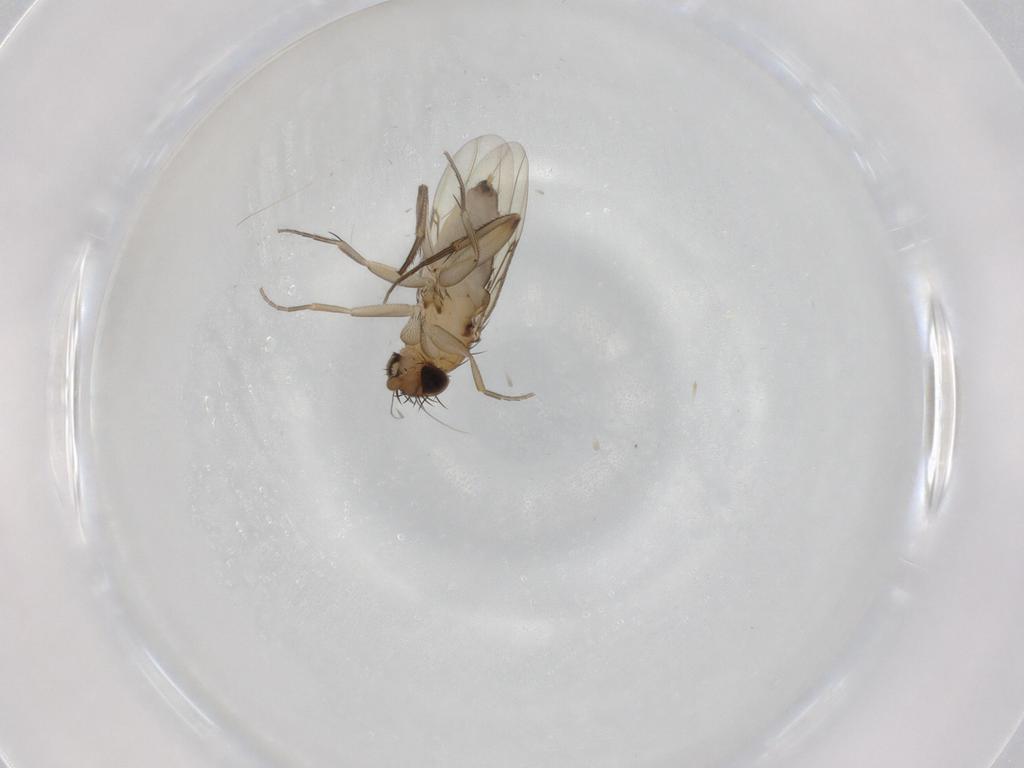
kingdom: Animalia
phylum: Arthropoda
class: Insecta
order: Diptera
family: Phoridae
